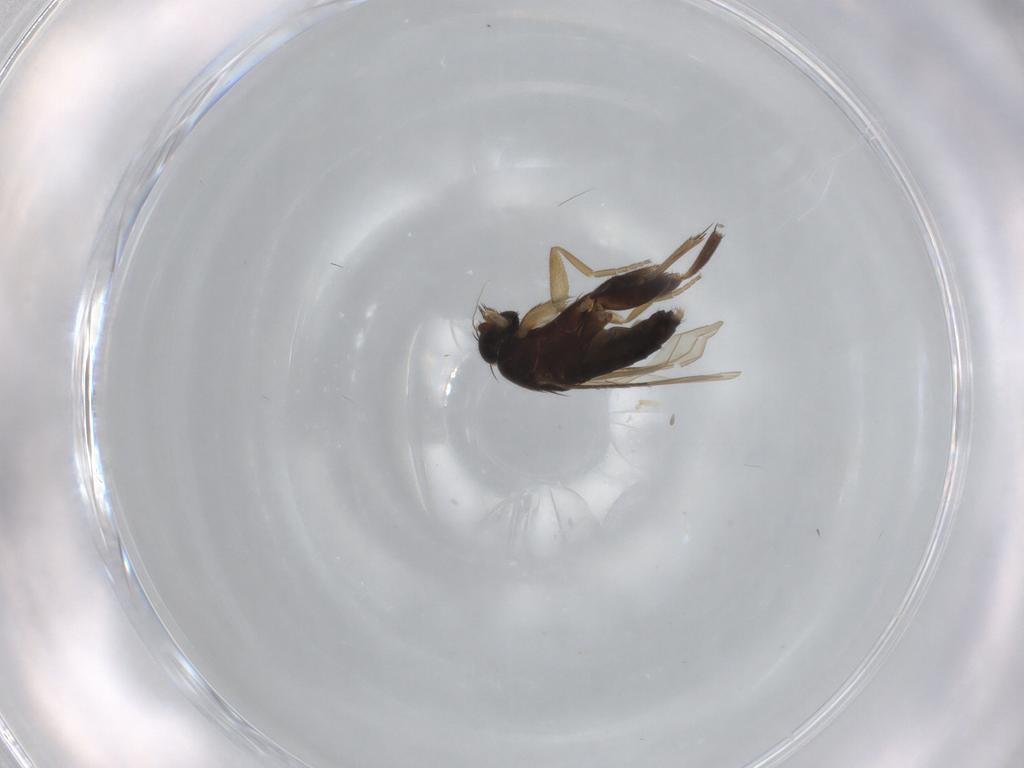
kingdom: Animalia
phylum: Arthropoda
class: Insecta
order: Diptera
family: Phoridae
